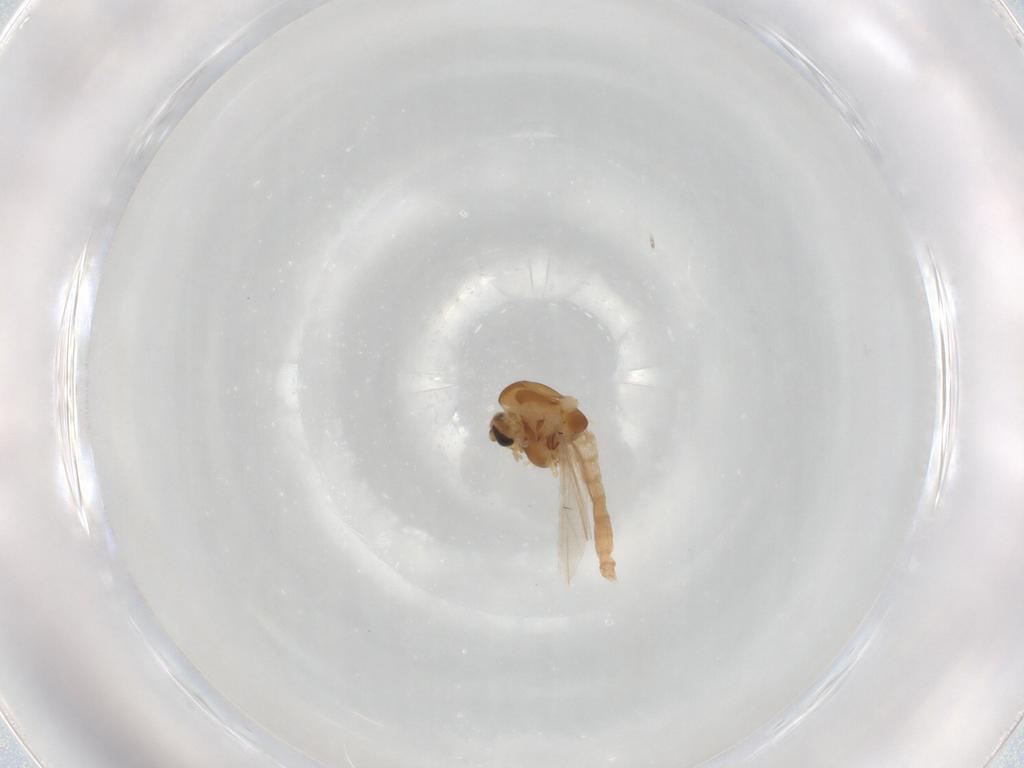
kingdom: Animalia
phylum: Arthropoda
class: Insecta
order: Diptera
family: Chironomidae
